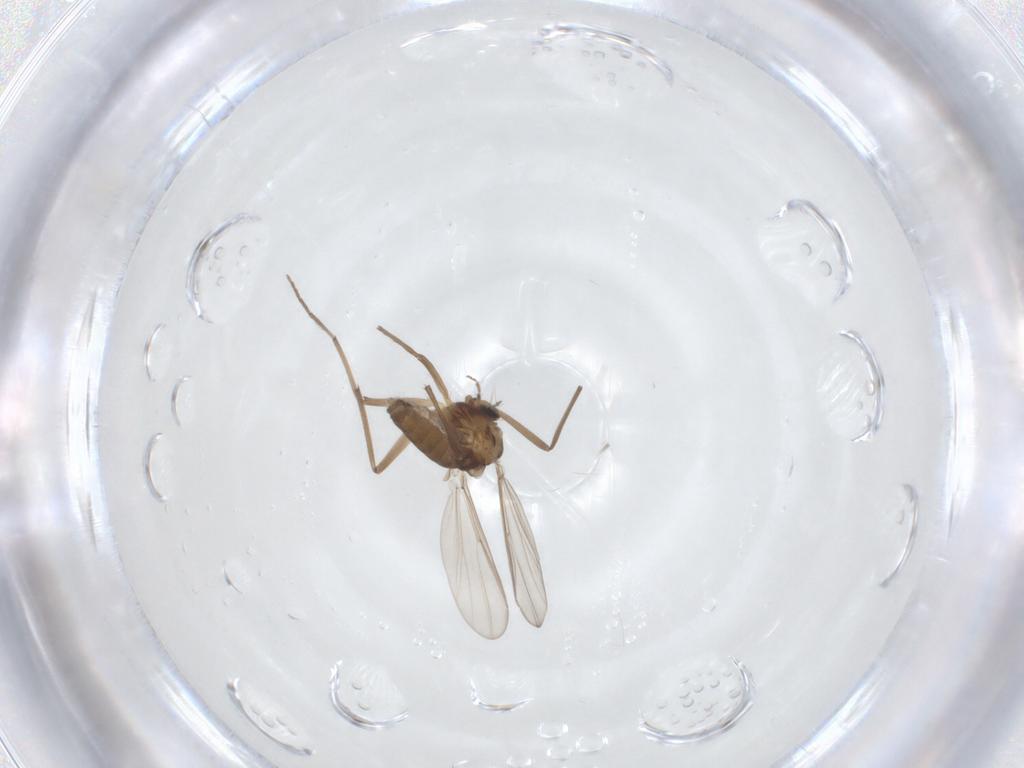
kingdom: Animalia
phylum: Arthropoda
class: Insecta
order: Diptera
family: Chironomidae
